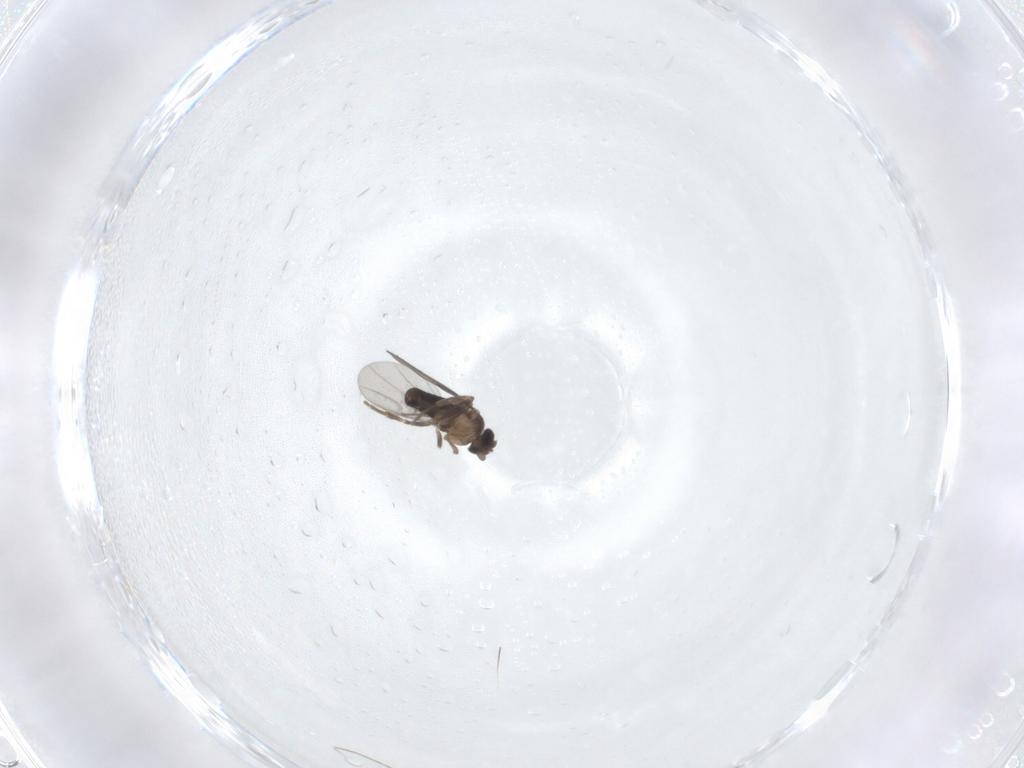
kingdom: Animalia
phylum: Arthropoda
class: Insecta
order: Diptera
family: Phoridae
